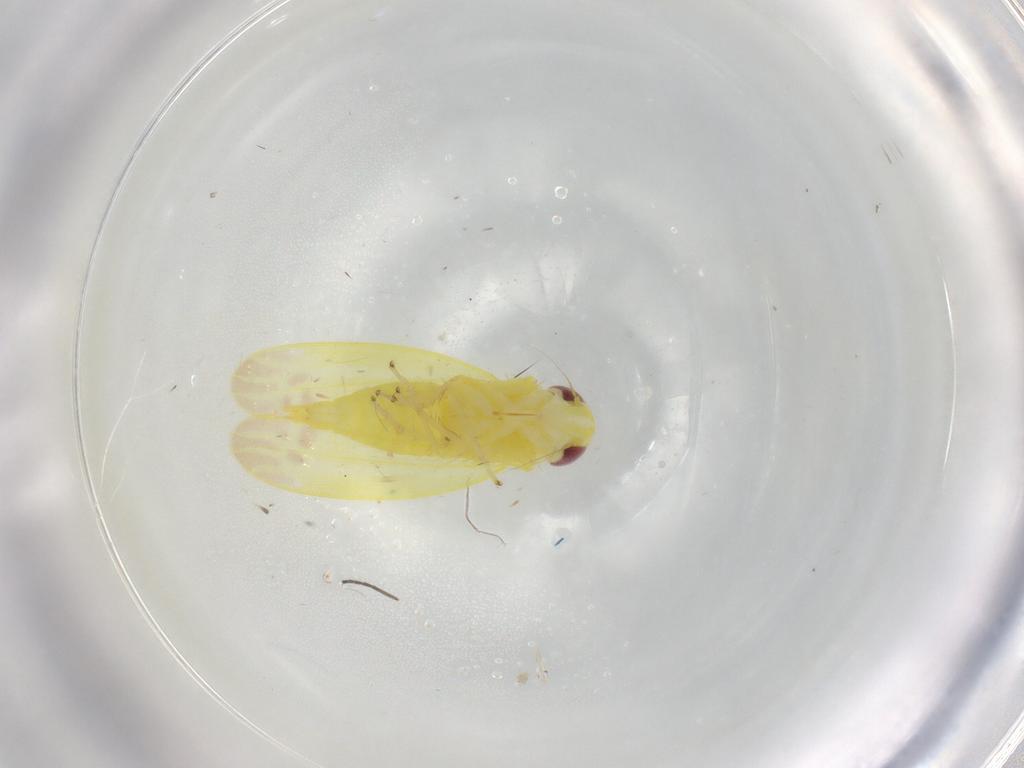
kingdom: Animalia
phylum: Arthropoda
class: Insecta
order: Hemiptera
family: Cicadellidae
